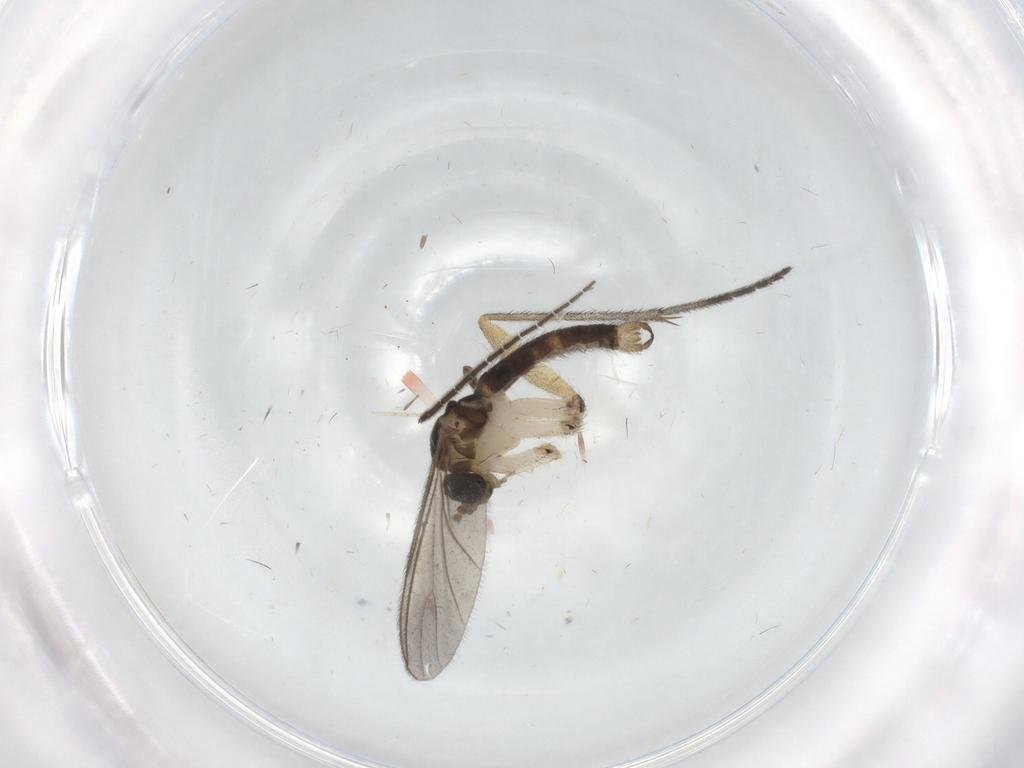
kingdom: Animalia
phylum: Arthropoda
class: Insecta
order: Diptera
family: Sciaridae
